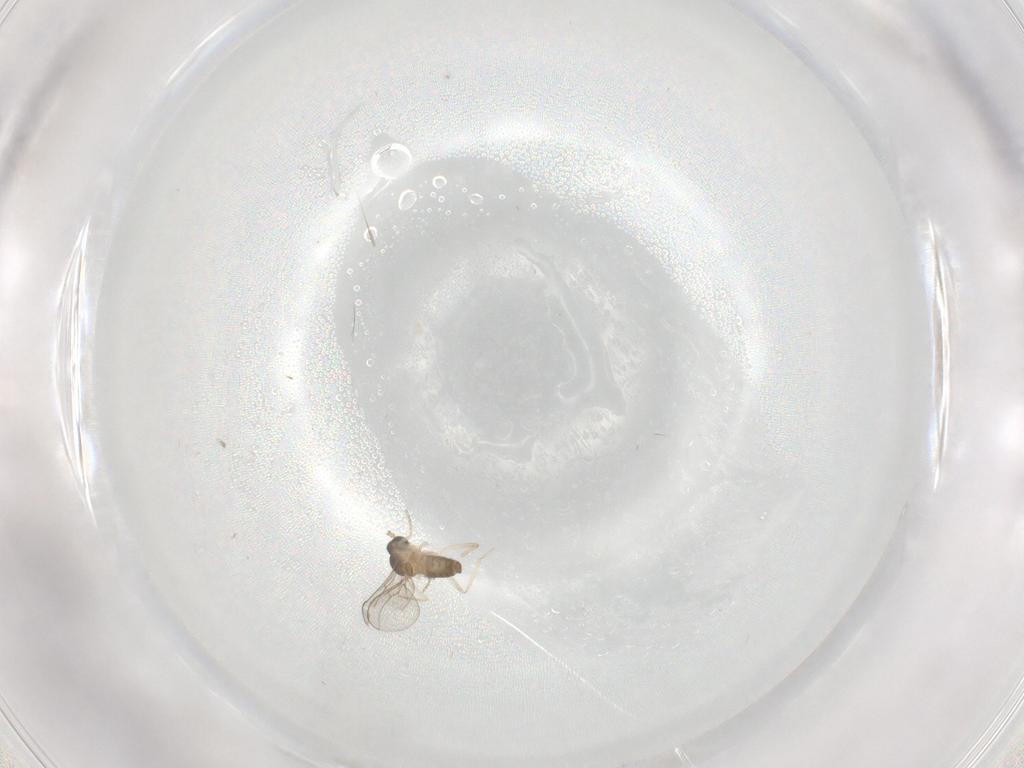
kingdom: Animalia
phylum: Arthropoda
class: Insecta
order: Diptera
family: Cecidomyiidae
